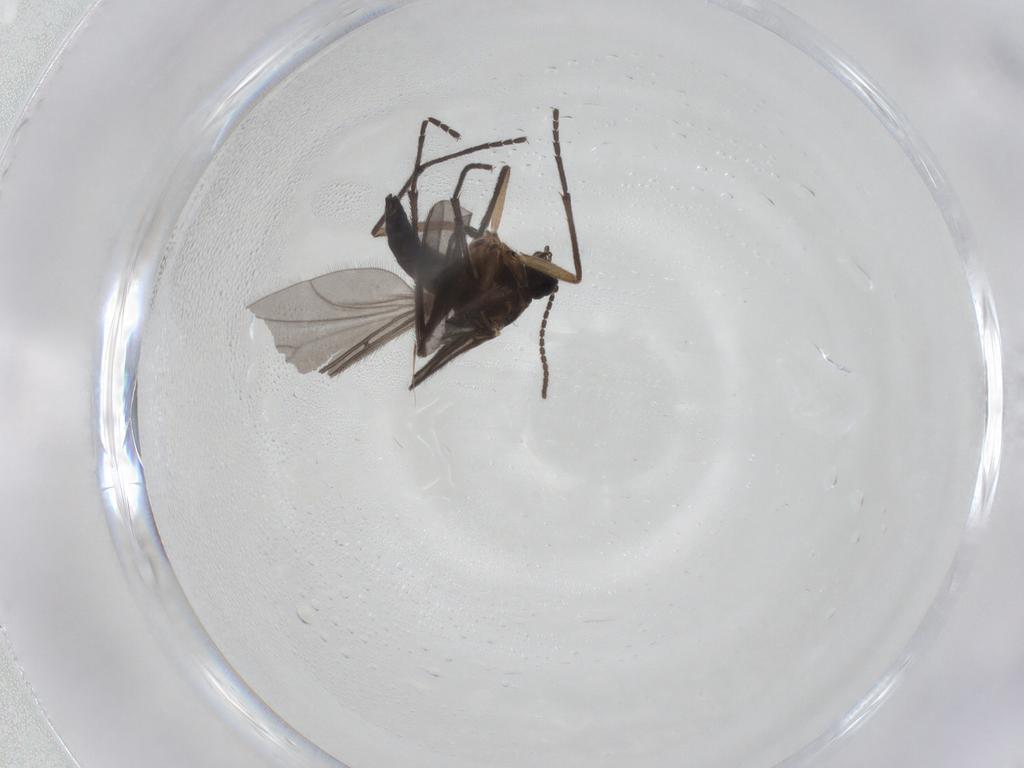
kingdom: Animalia
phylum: Arthropoda
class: Insecta
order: Diptera
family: Sciaridae
